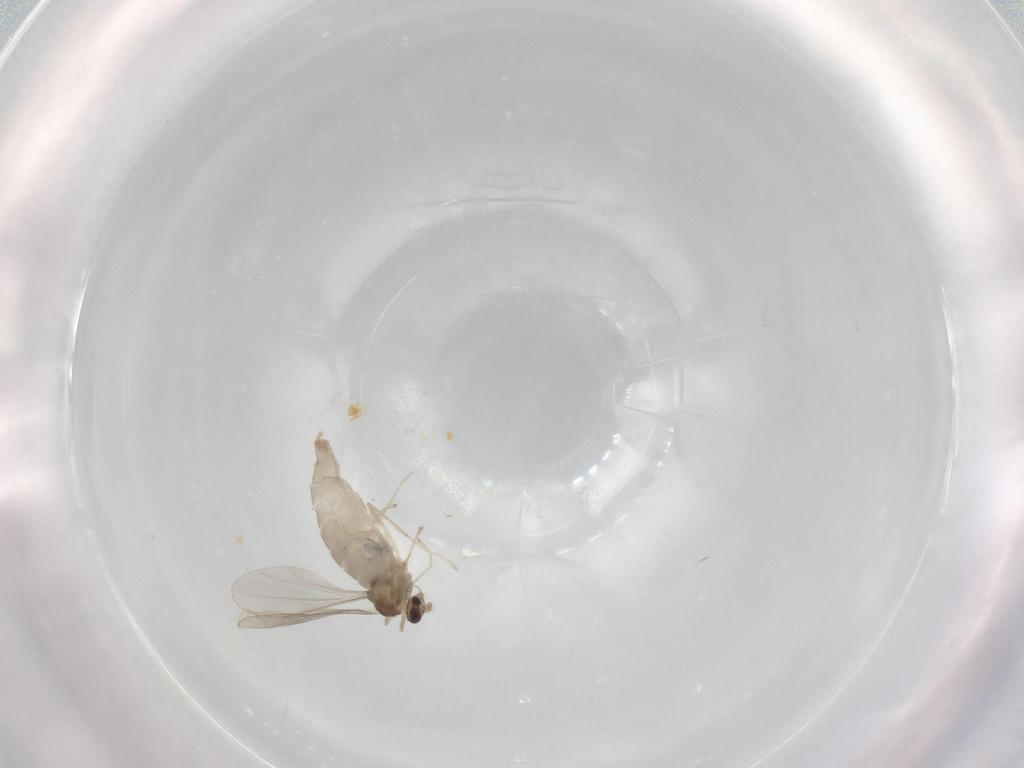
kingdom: Animalia
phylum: Arthropoda
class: Insecta
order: Diptera
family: Cecidomyiidae
